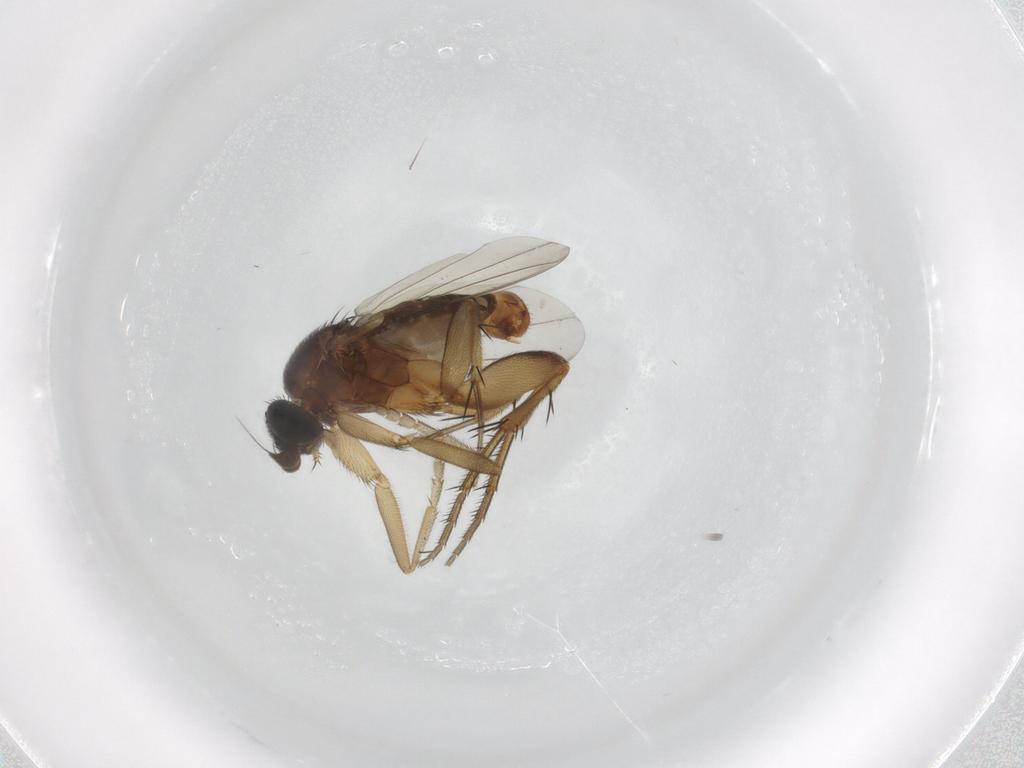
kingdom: Animalia
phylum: Arthropoda
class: Insecta
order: Diptera
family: Phoridae
